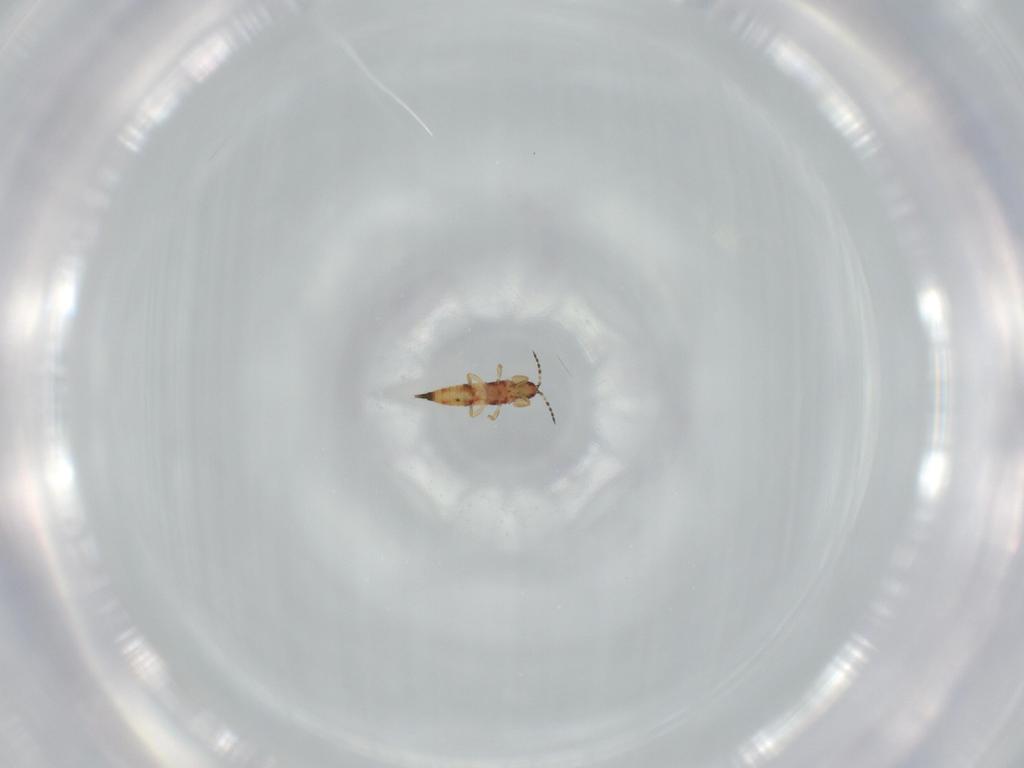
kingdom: Animalia
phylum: Arthropoda
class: Insecta
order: Thysanoptera
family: Phlaeothripidae
